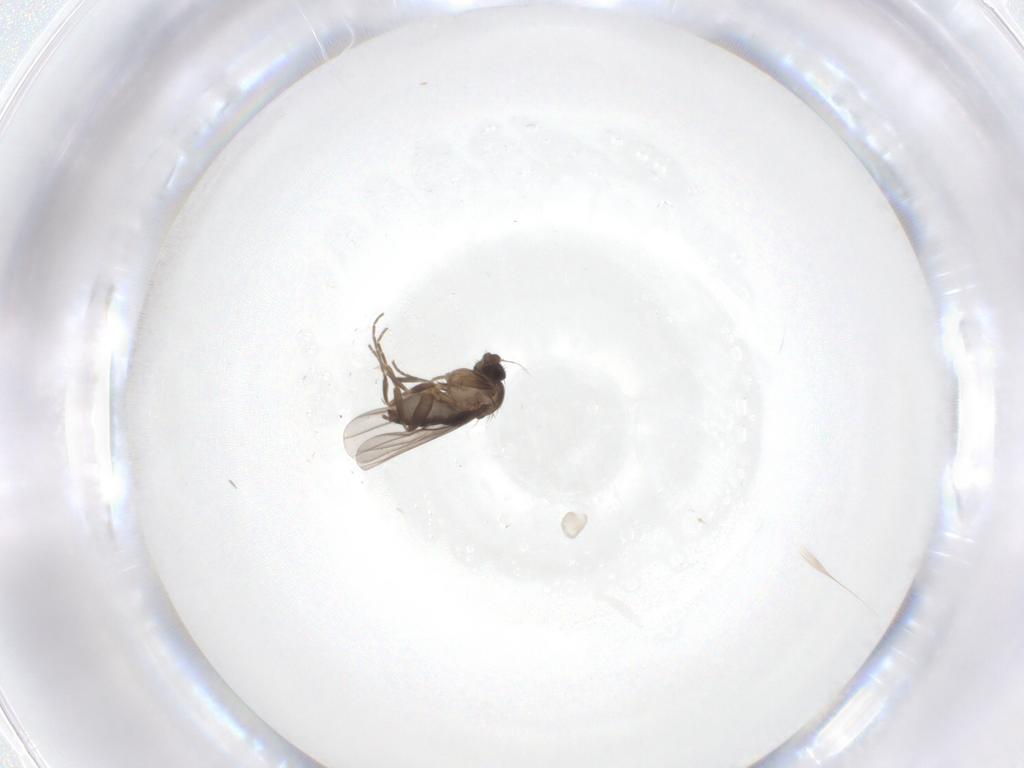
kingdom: Animalia
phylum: Arthropoda
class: Insecta
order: Diptera
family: Phoridae
